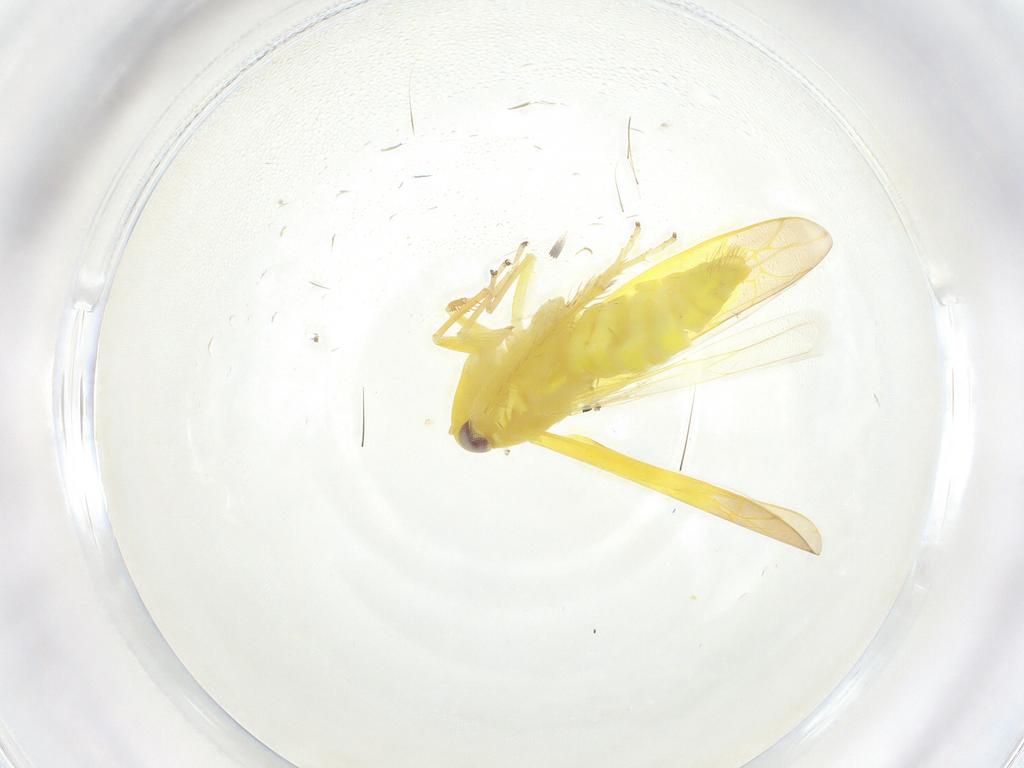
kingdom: Animalia
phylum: Arthropoda
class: Insecta
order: Hemiptera
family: Cicadellidae
